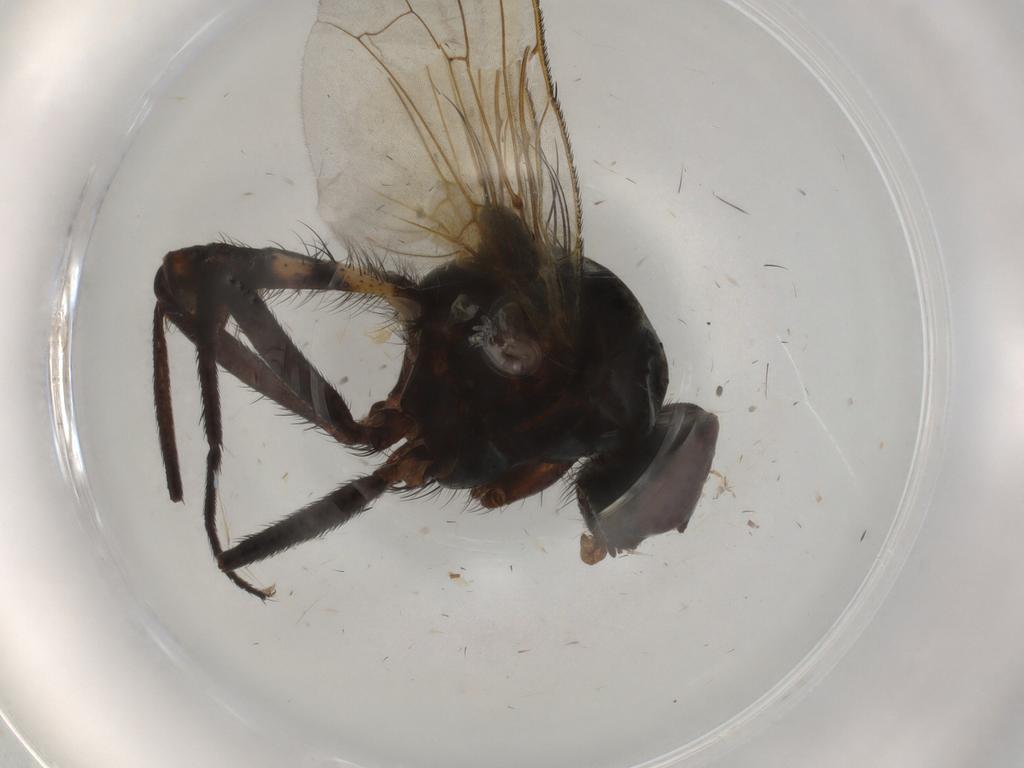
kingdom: Animalia
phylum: Arthropoda
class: Insecta
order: Diptera
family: Anthomyiidae
